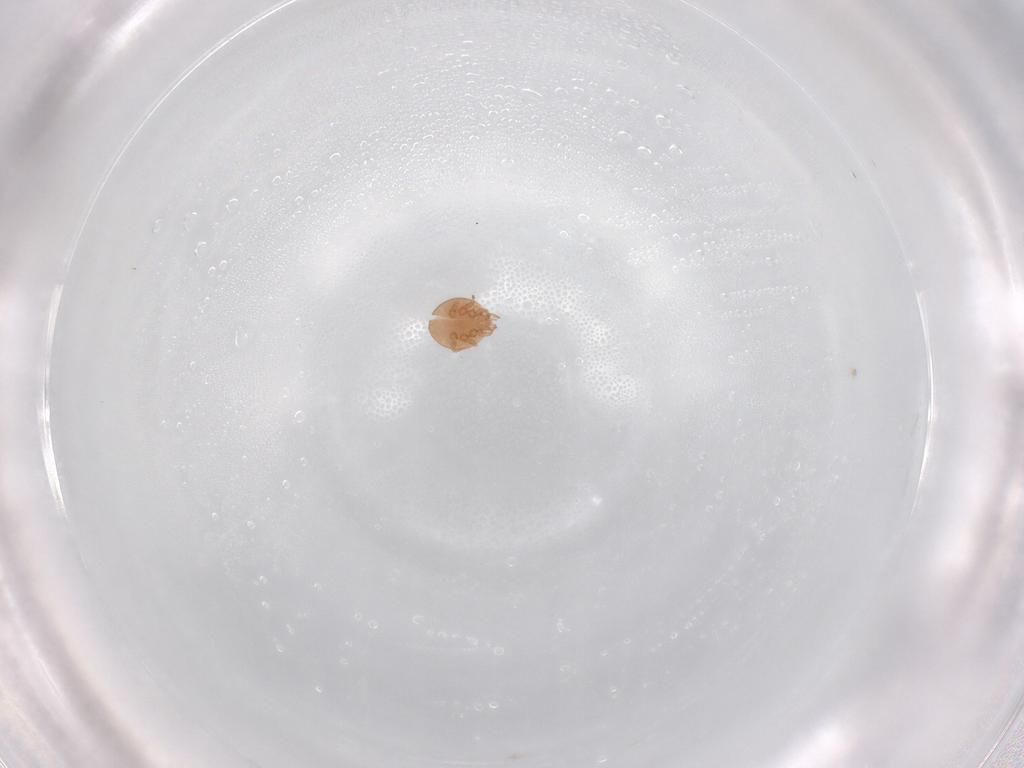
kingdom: Animalia
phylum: Arthropoda
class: Arachnida
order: Mesostigmata
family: Trematuridae
